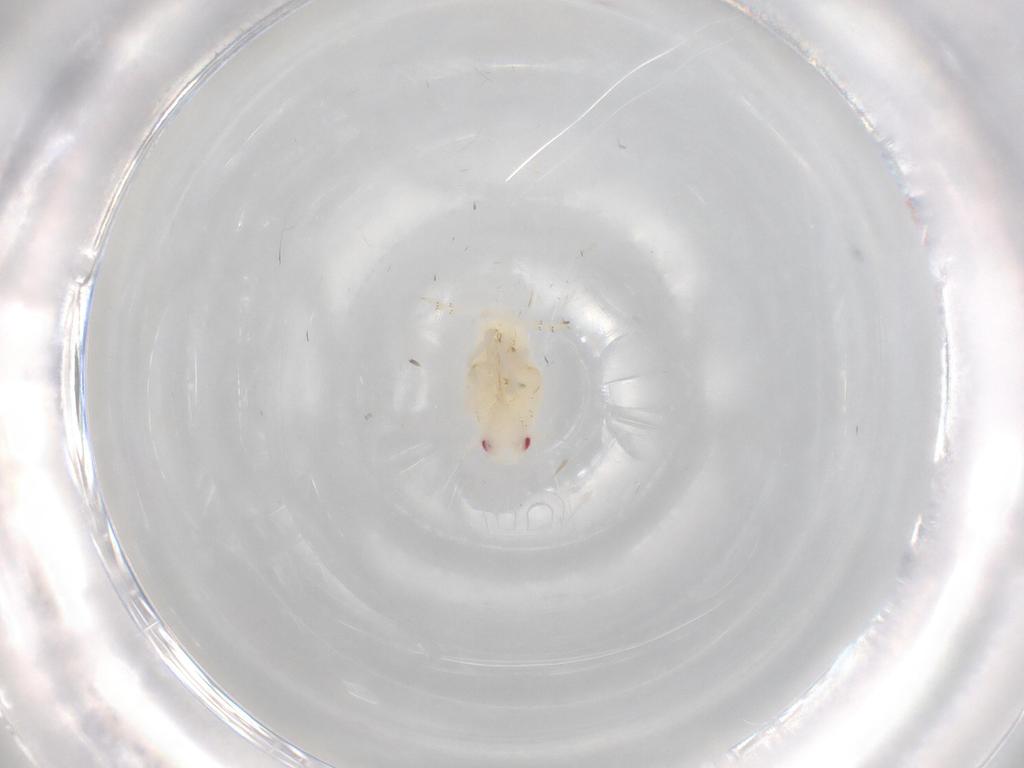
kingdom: Animalia
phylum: Arthropoda
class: Insecta
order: Hemiptera
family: Flatidae
